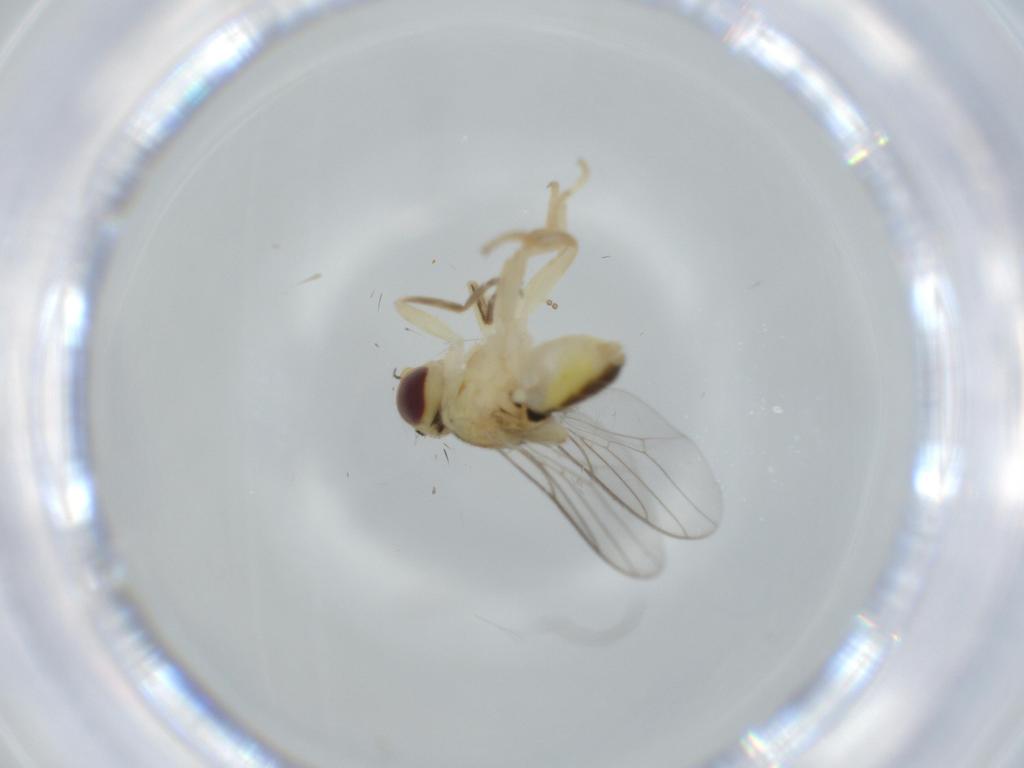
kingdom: Animalia
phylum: Arthropoda
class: Insecta
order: Diptera
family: Chloropidae
